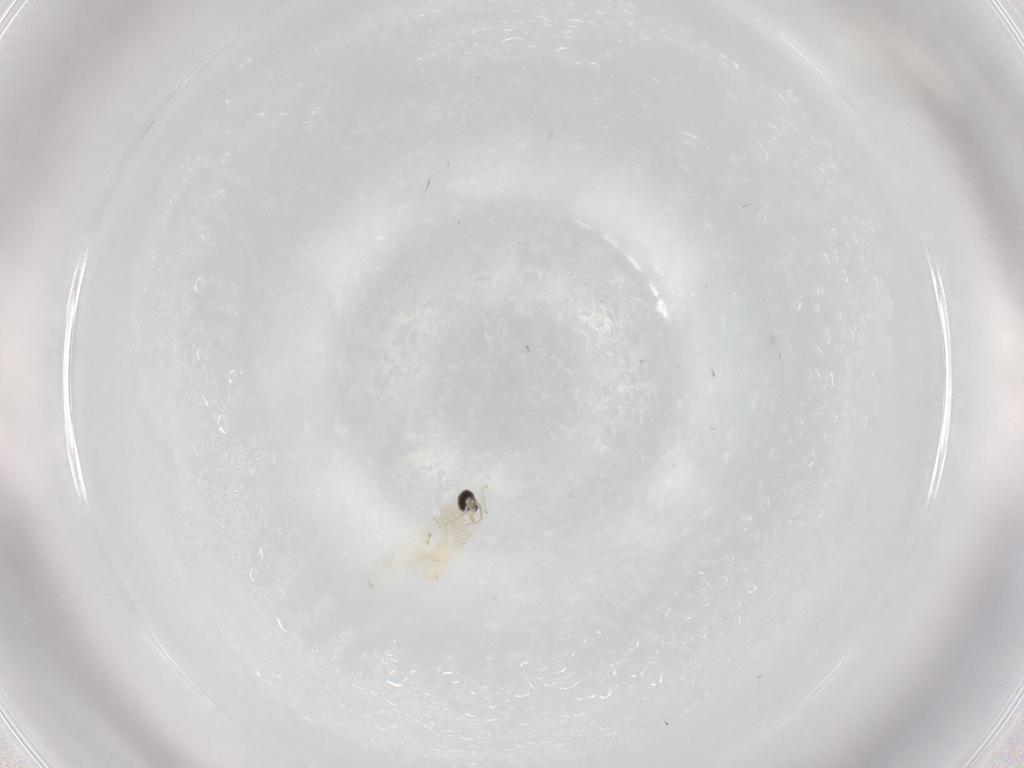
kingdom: Animalia
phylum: Arthropoda
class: Insecta
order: Diptera
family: Cecidomyiidae
